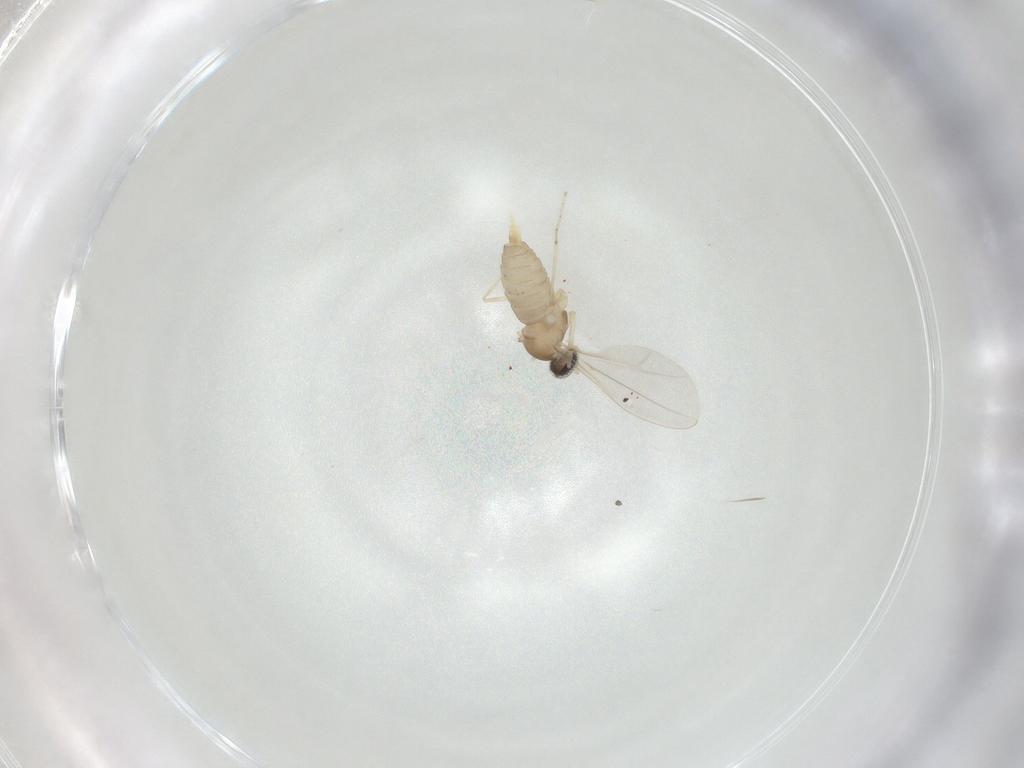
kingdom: Animalia
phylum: Arthropoda
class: Insecta
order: Diptera
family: Cecidomyiidae
